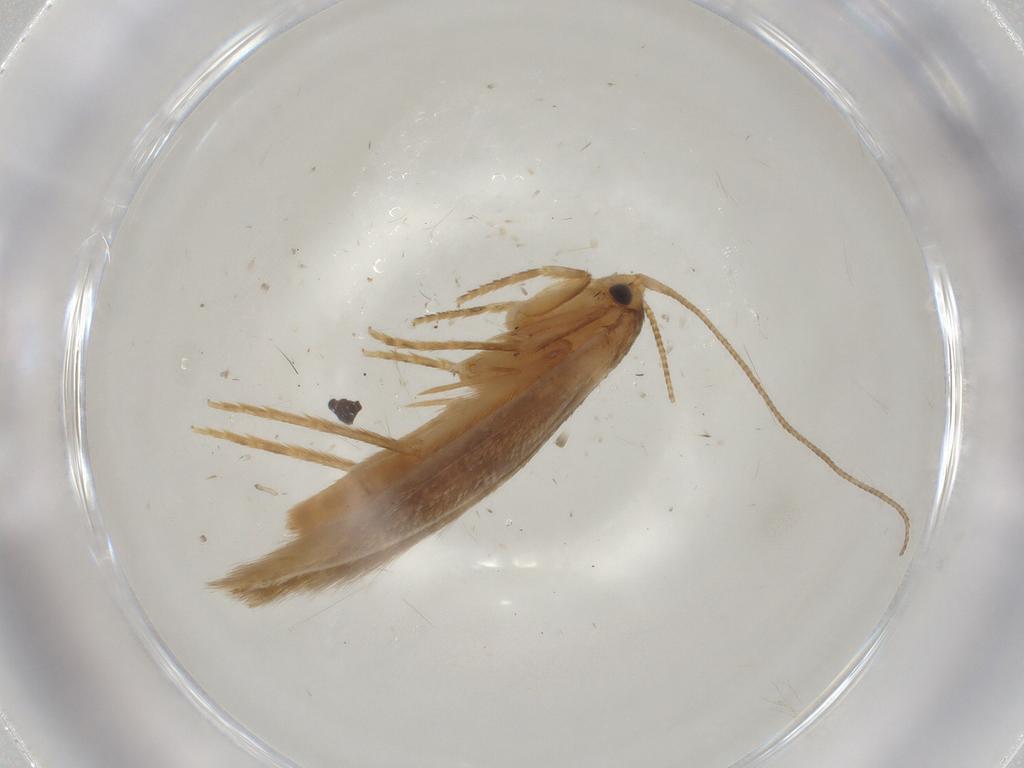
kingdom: Animalia
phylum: Arthropoda
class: Insecta
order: Lepidoptera
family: Tineidae
